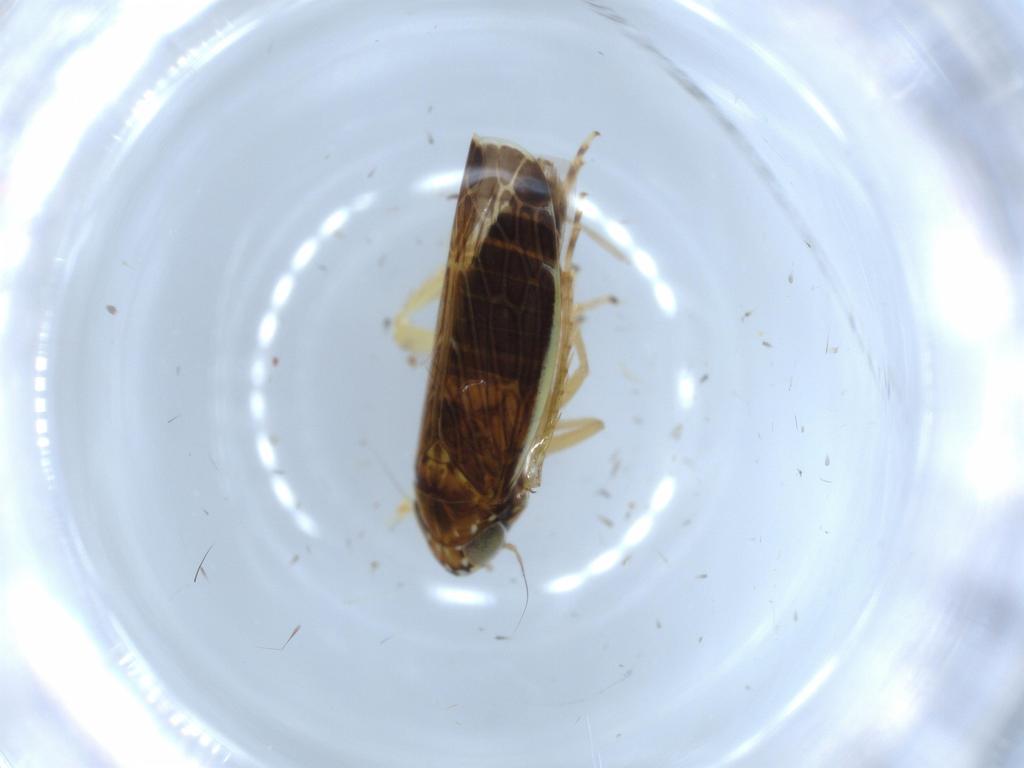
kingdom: Animalia
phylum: Arthropoda
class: Insecta
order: Hemiptera
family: Cicadellidae
